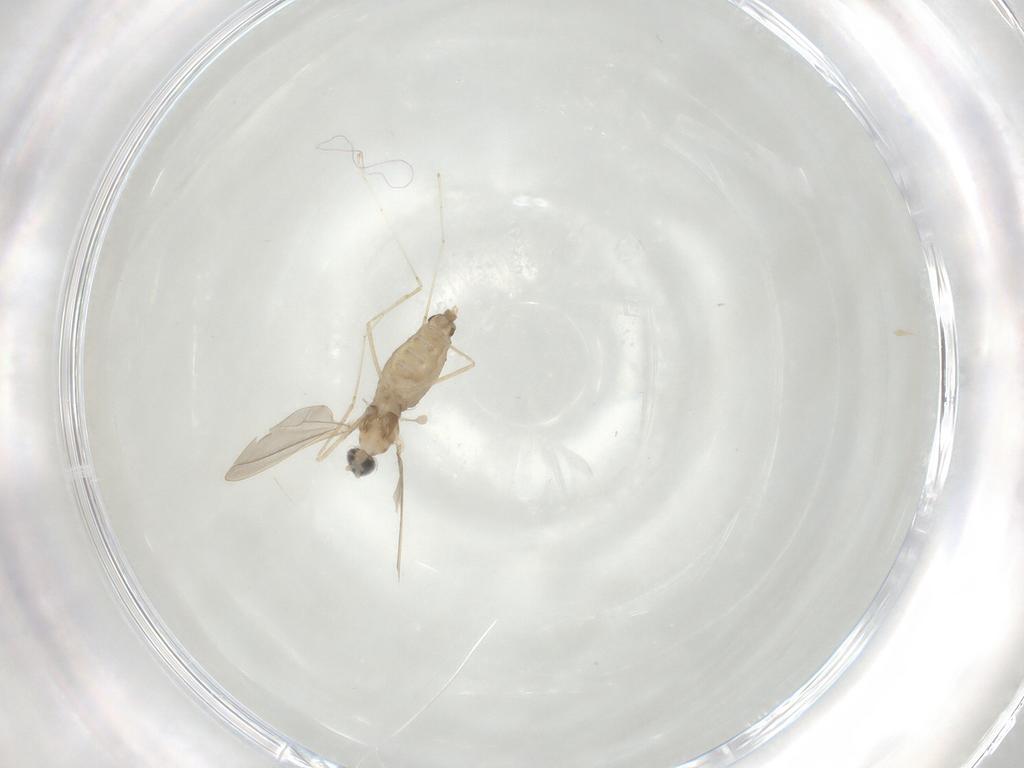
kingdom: Animalia
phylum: Arthropoda
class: Insecta
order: Diptera
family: Cecidomyiidae
